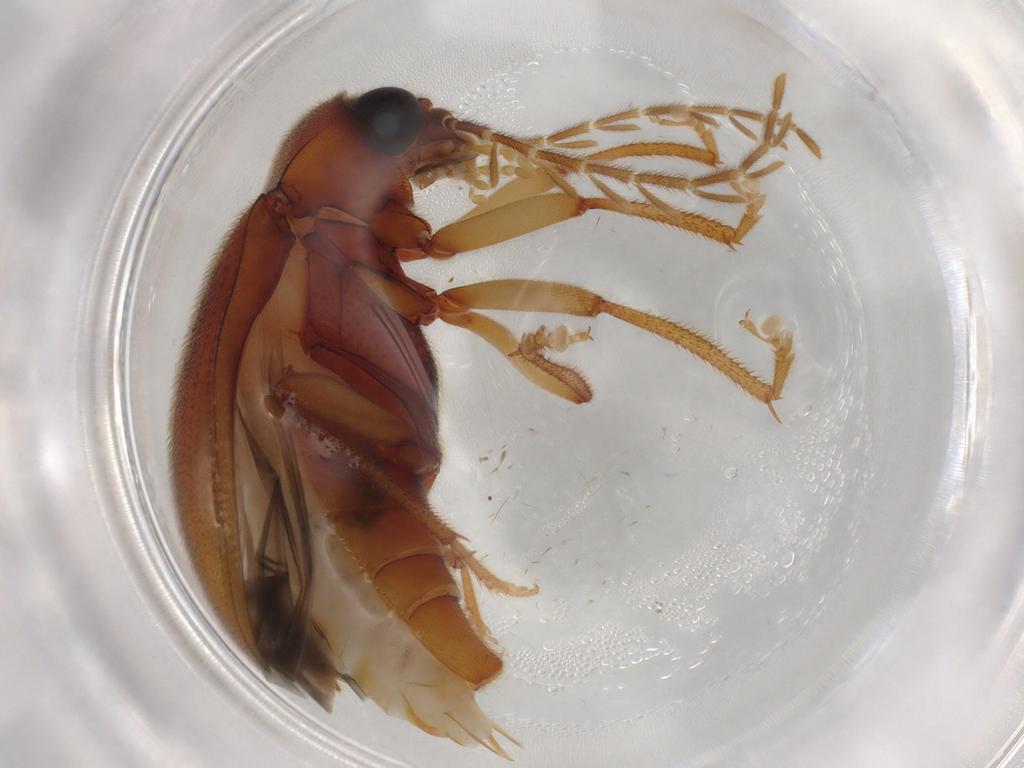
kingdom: Animalia
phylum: Arthropoda
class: Insecta
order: Coleoptera
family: Ptilodactylidae
